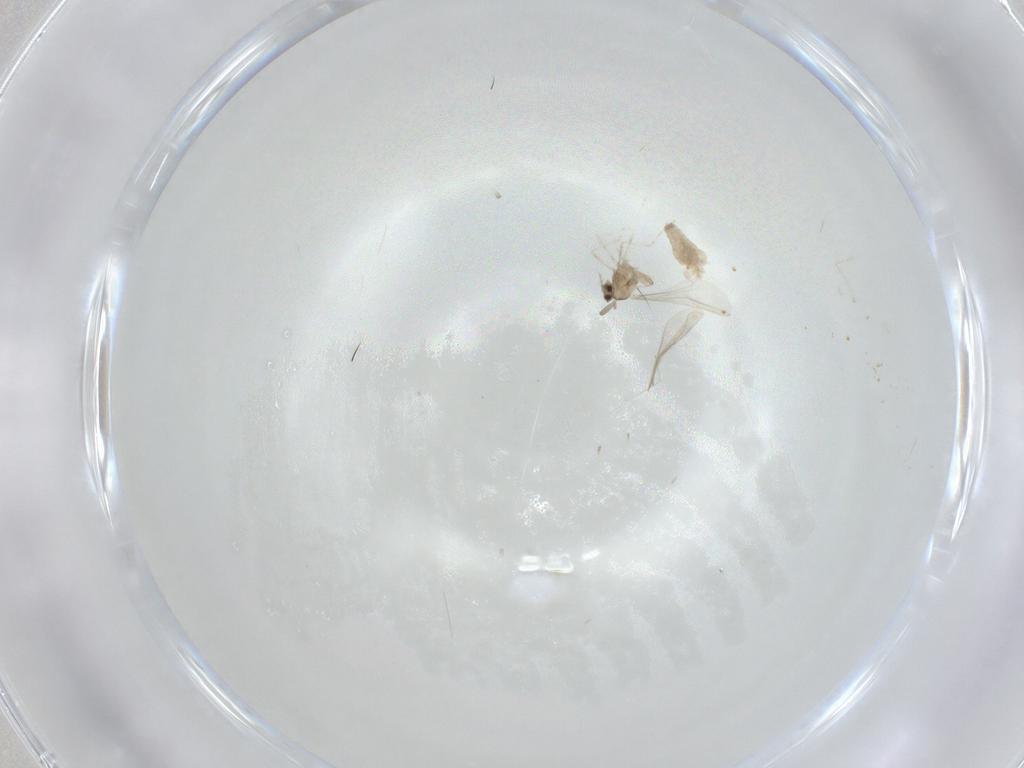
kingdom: Animalia
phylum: Arthropoda
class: Insecta
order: Diptera
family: Cecidomyiidae
